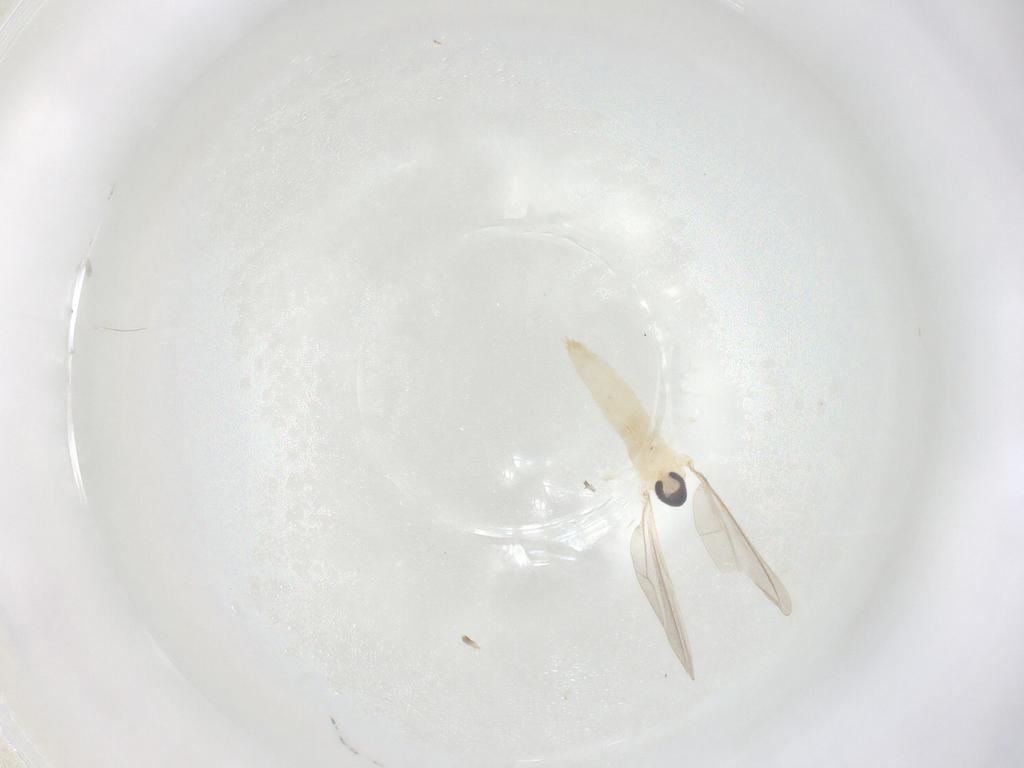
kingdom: Animalia
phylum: Arthropoda
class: Insecta
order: Diptera
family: Cecidomyiidae
